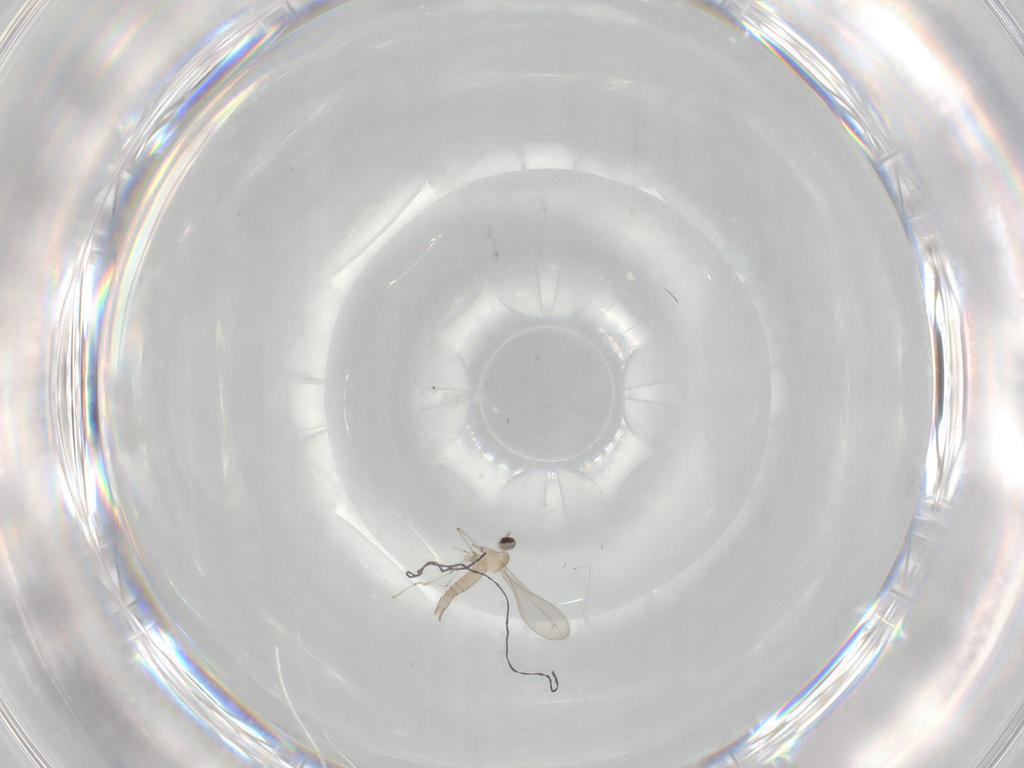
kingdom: Animalia
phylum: Arthropoda
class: Insecta
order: Diptera
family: Cecidomyiidae
